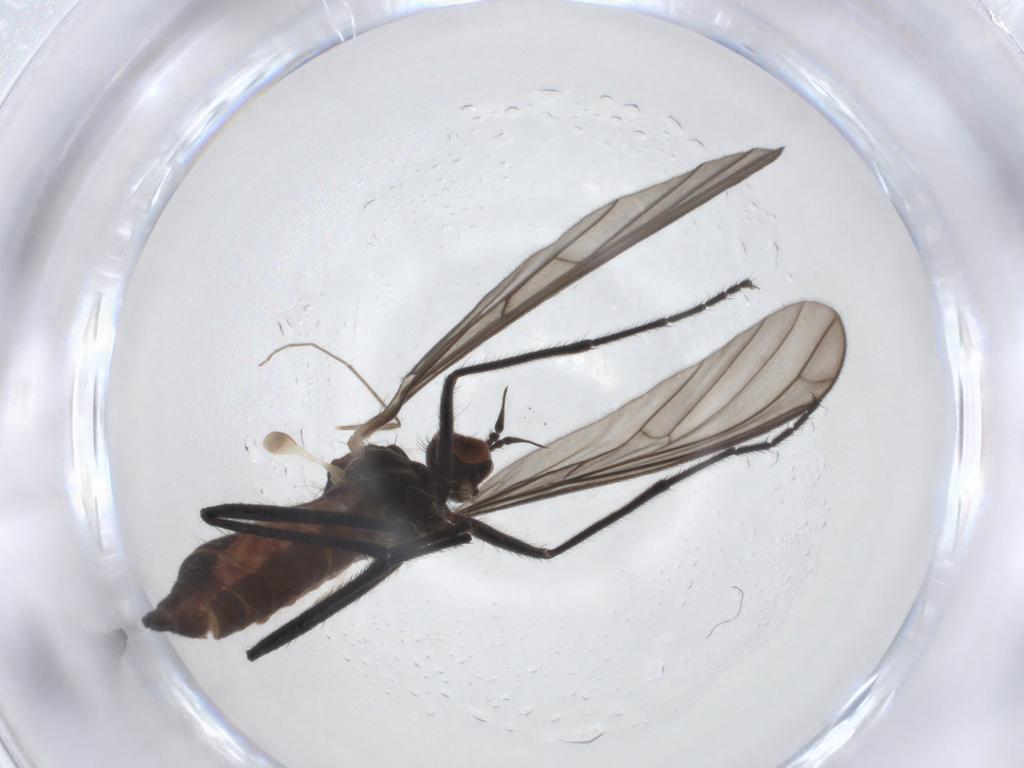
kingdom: Animalia
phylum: Arthropoda
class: Insecta
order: Diptera
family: Empididae
